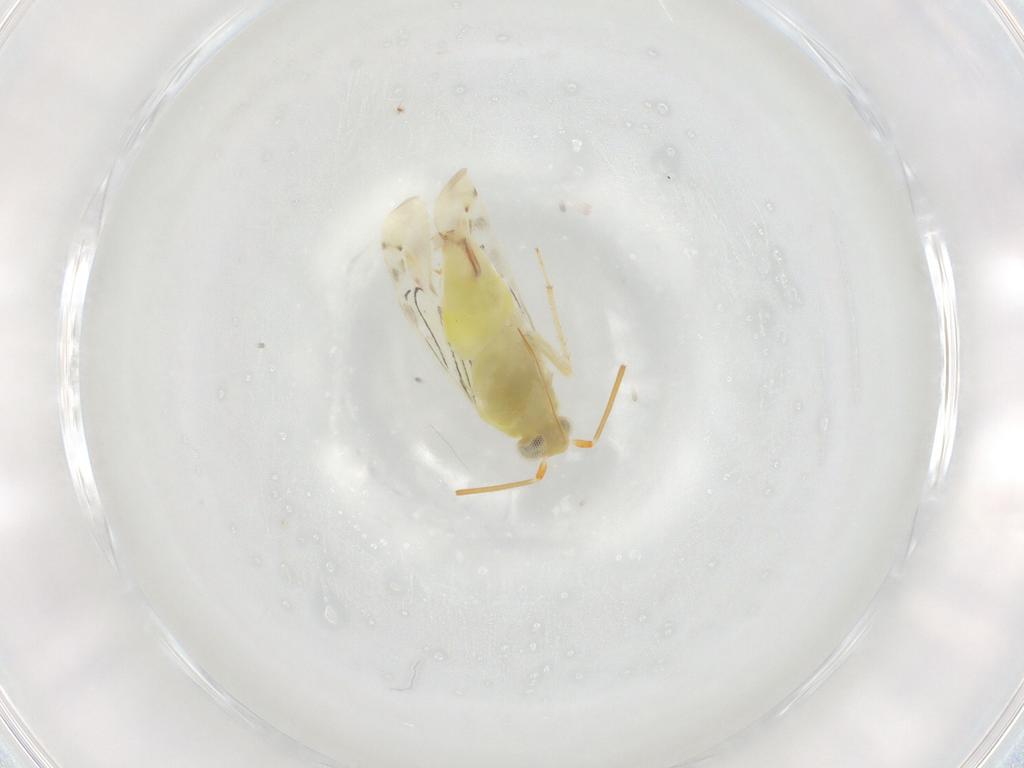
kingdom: Animalia
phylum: Arthropoda
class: Insecta
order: Hemiptera
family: Miridae
